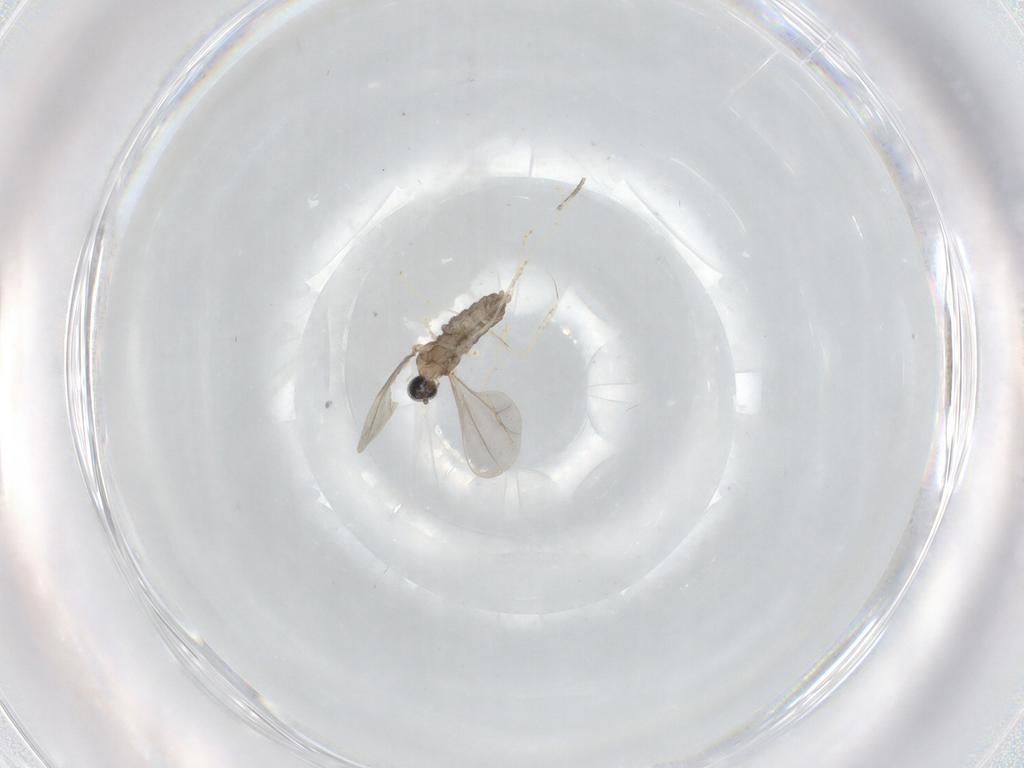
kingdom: Animalia
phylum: Arthropoda
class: Insecta
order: Diptera
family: Cecidomyiidae
